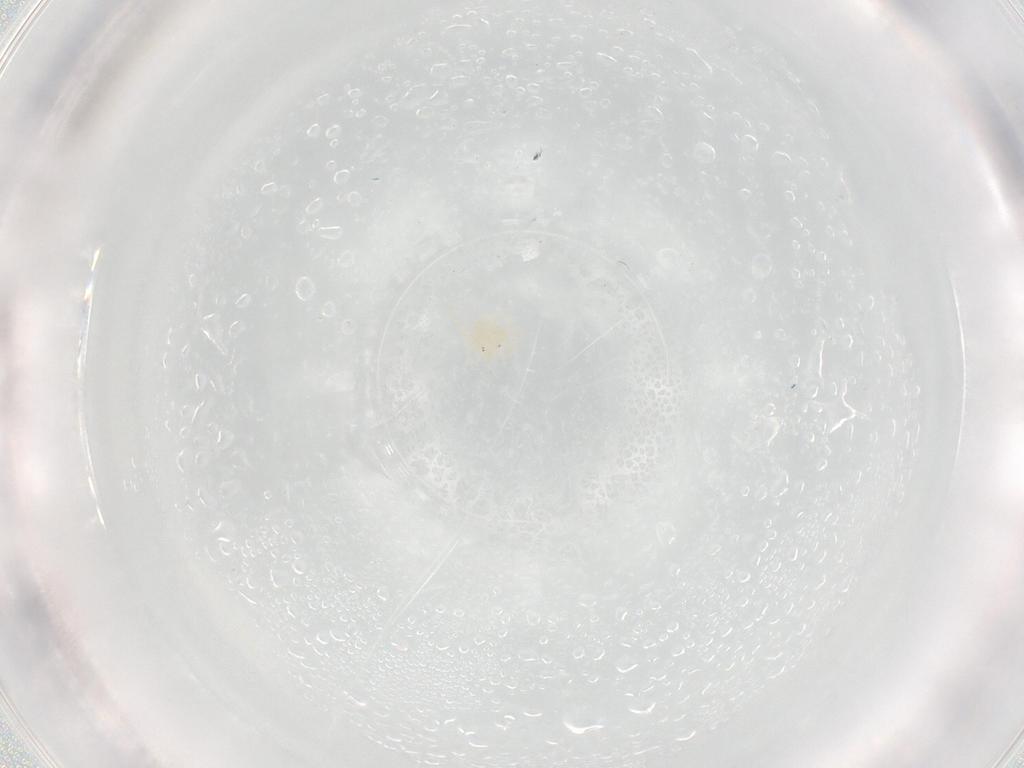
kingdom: Animalia
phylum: Arthropoda
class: Arachnida
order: Trombidiformes
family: Hydryphantidae
